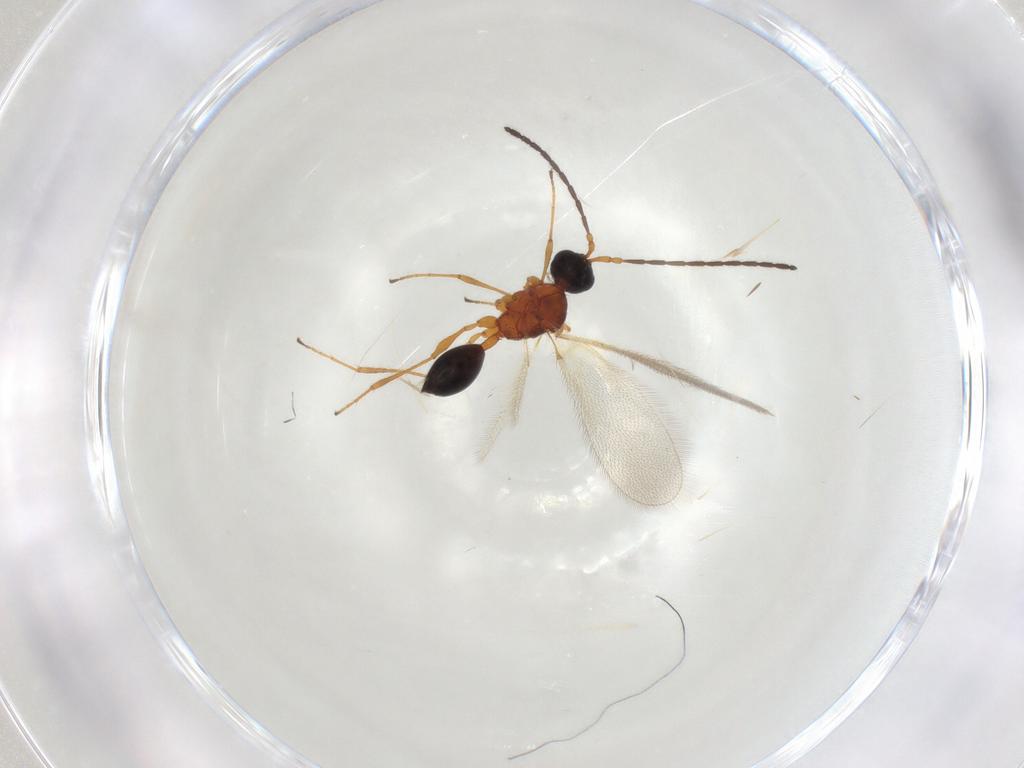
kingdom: Animalia
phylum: Arthropoda
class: Insecta
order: Hymenoptera
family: Diapriidae
